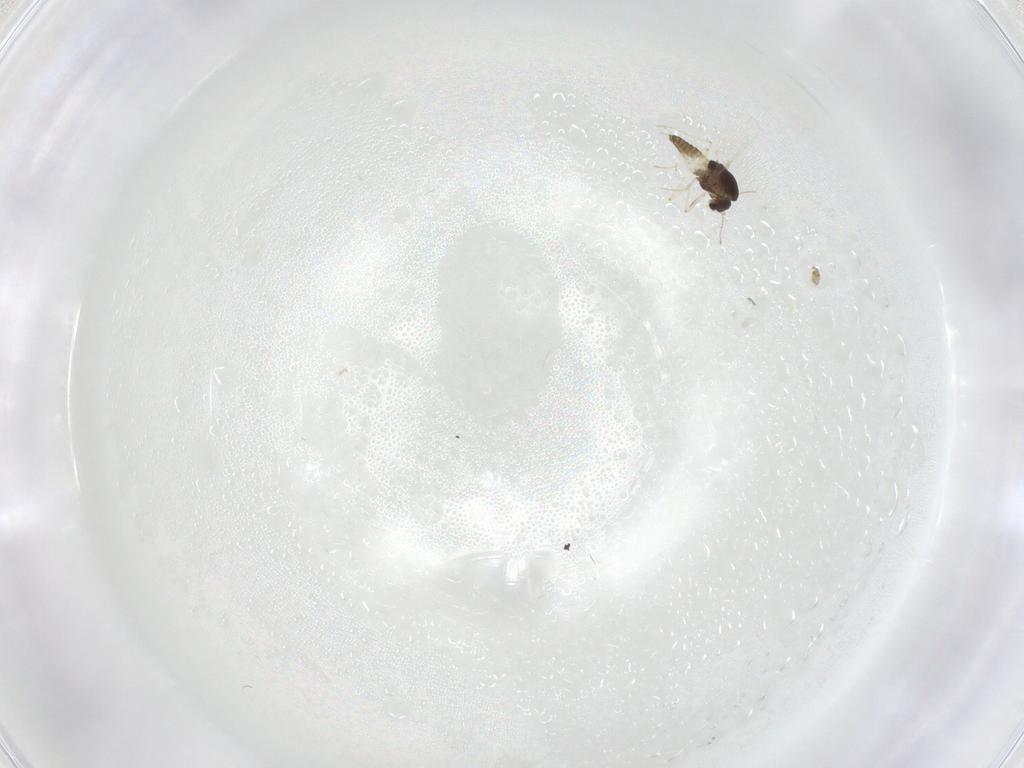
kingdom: Animalia
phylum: Arthropoda
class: Insecta
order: Diptera
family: Chironomidae
